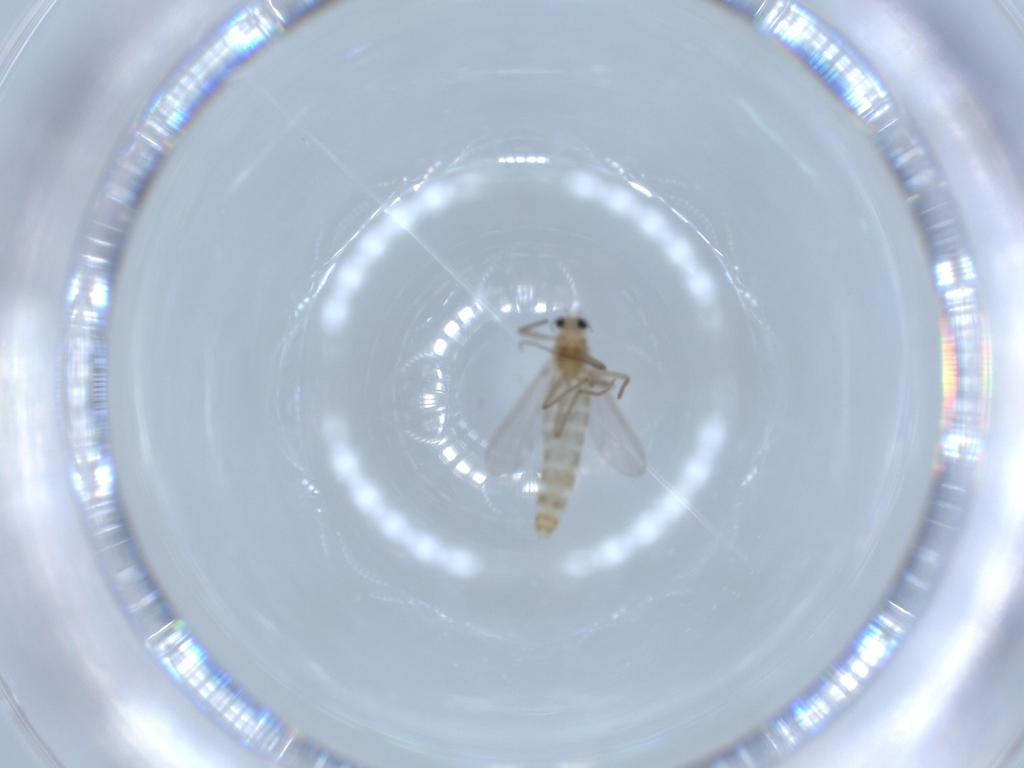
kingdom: Animalia
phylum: Arthropoda
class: Insecta
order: Diptera
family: Chironomidae
